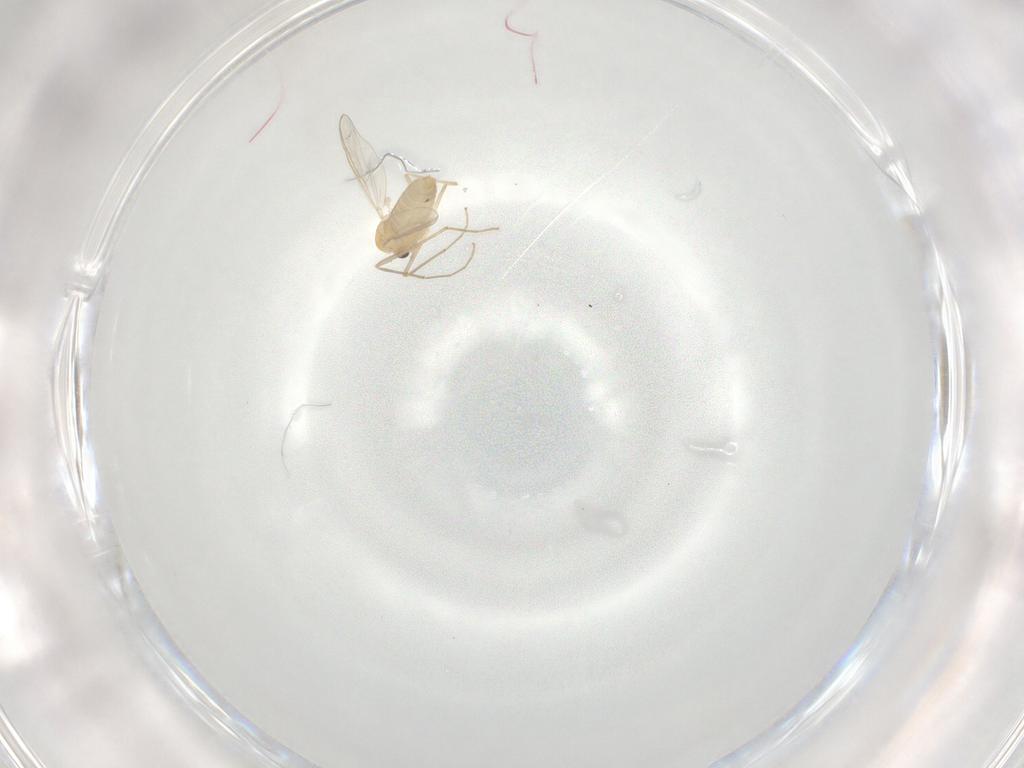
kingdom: Animalia
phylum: Arthropoda
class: Insecta
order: Diptera
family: Chironomidae
